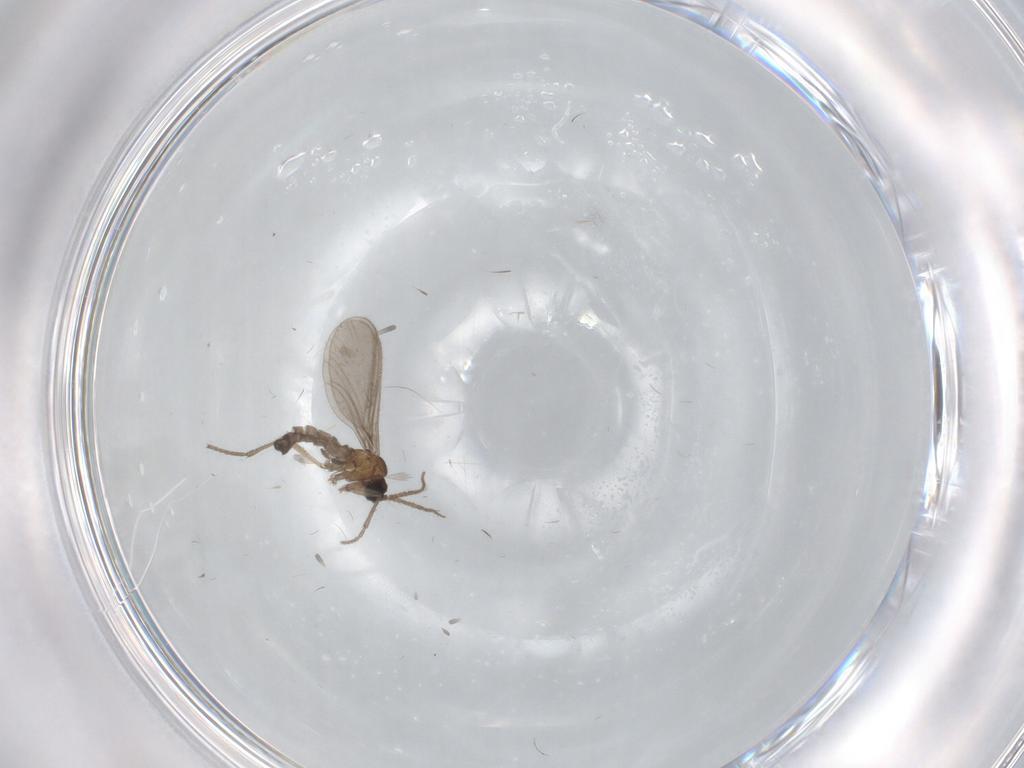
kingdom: Animalia
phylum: Arthropoda
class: Insecta
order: Diptera
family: Sciaridae
